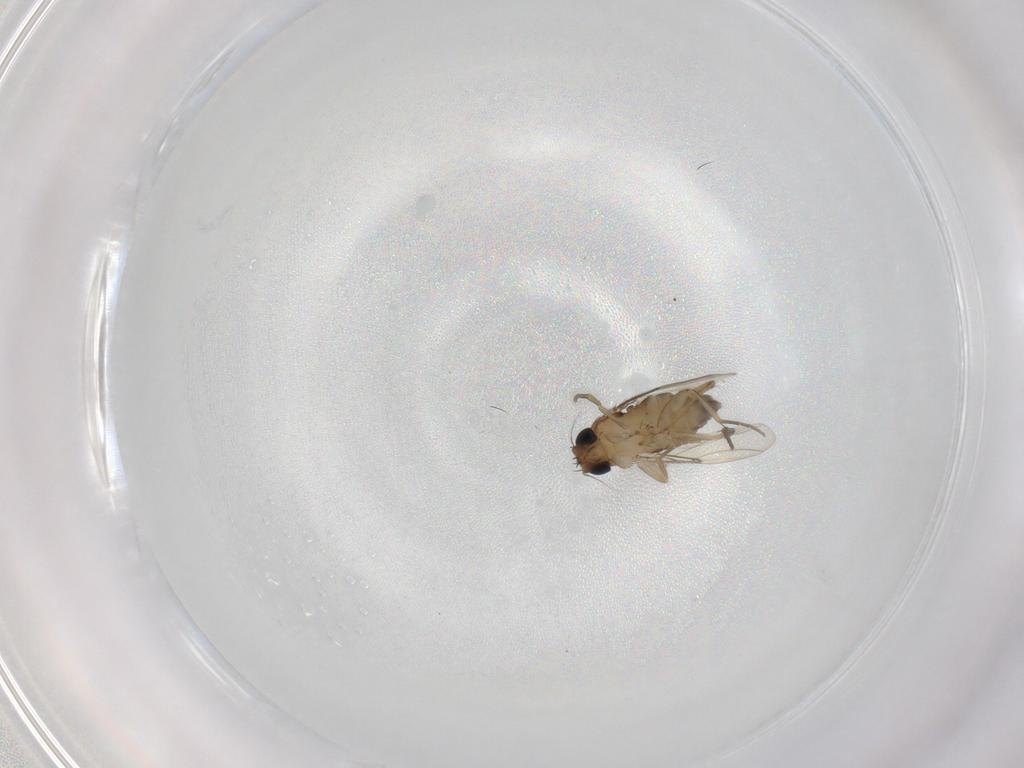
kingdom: Animalia
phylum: Arthropoda
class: Insecta
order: Diptera
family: Phoridae
